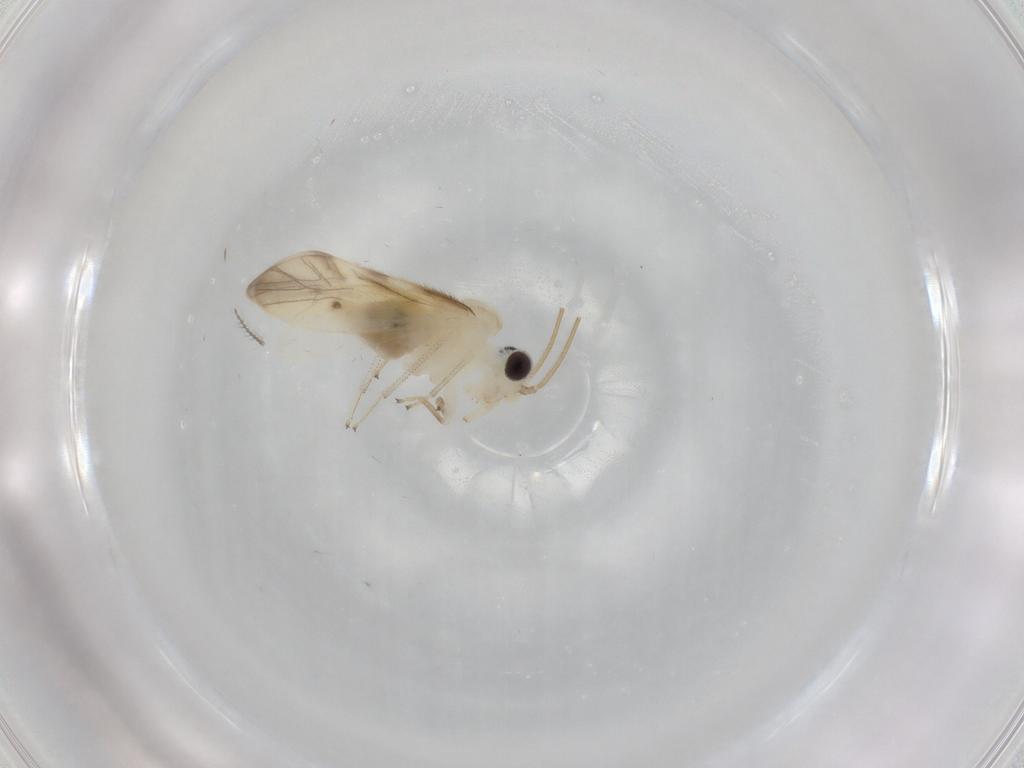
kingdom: Animalia
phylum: Arthropoda
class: Insecta
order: Psocodea
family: Caeciliusidae
